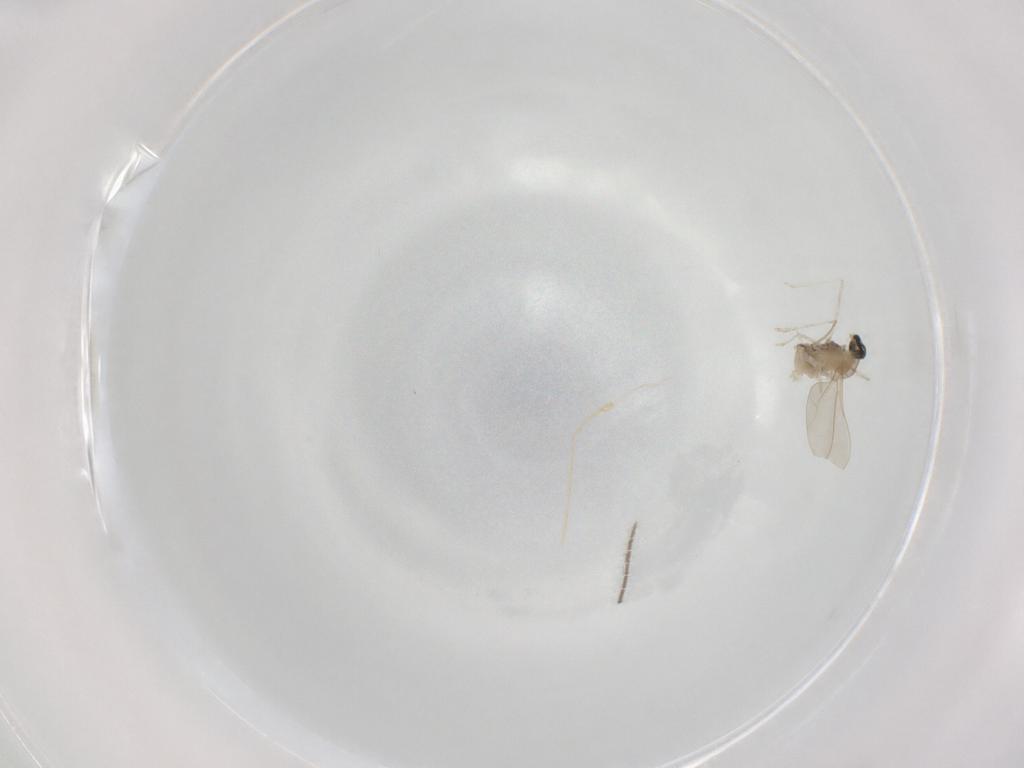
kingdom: Animalia
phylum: Arthropoda
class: Insecta
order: Diptera
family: Cecidomyiidae
